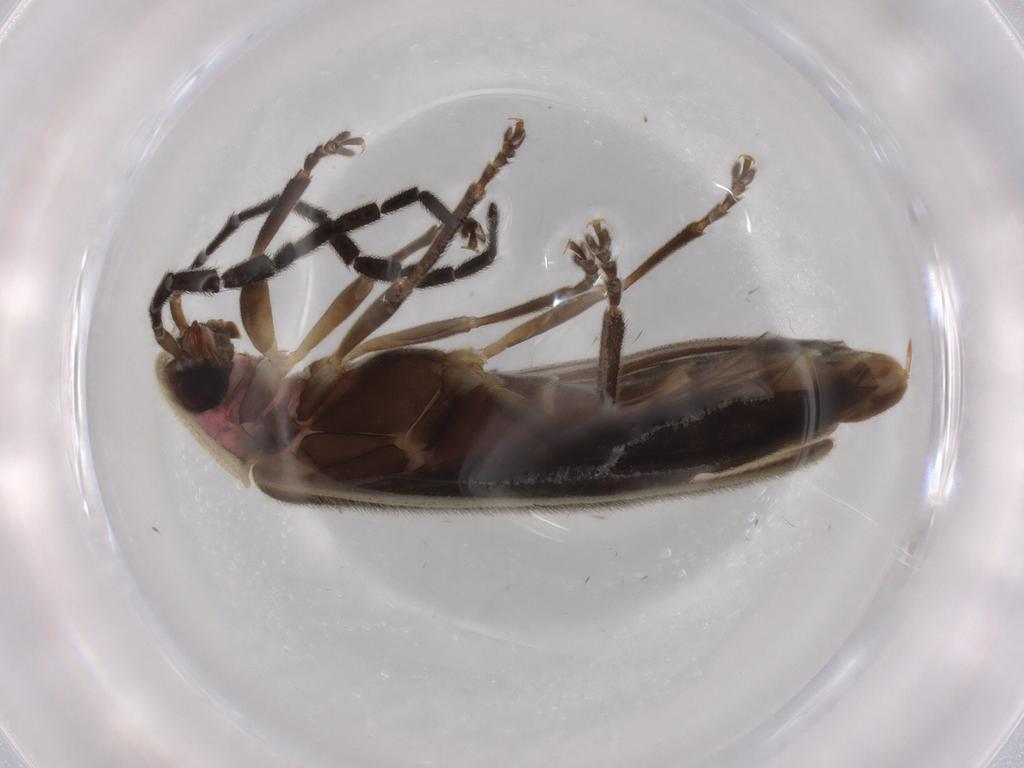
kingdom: Animalia
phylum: Arthropoda
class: Insecta
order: Coleoptera
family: Lampyridae
